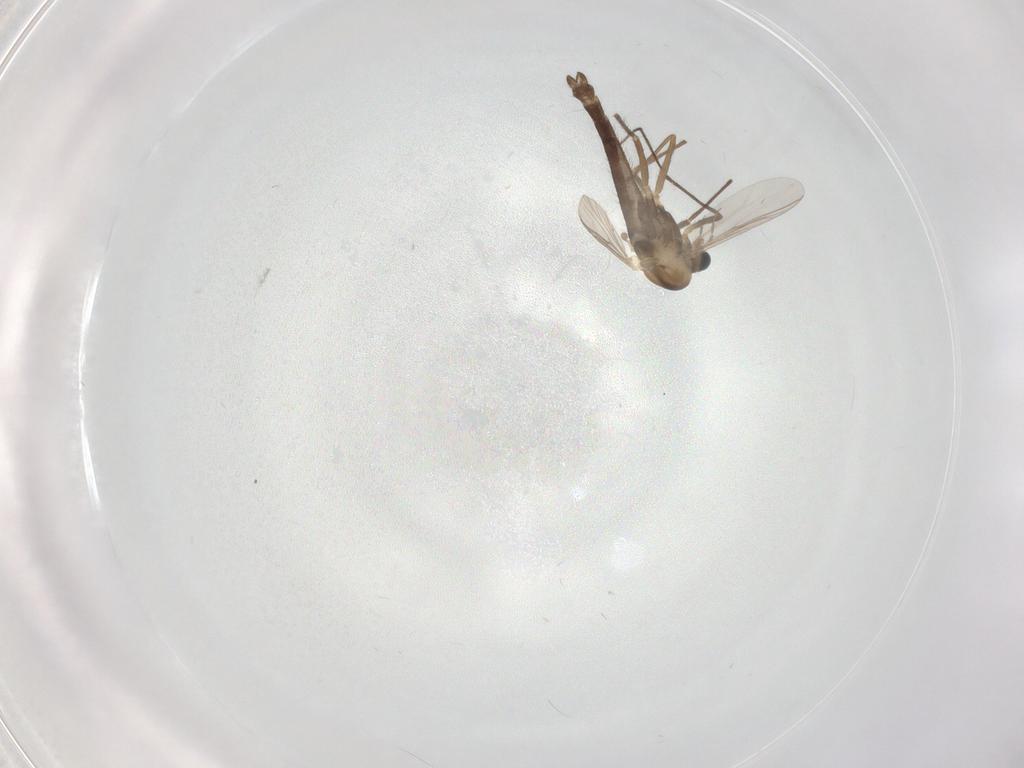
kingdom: Animalia
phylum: Arthropoda
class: Insecta
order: Diptera
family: Chironomidae
